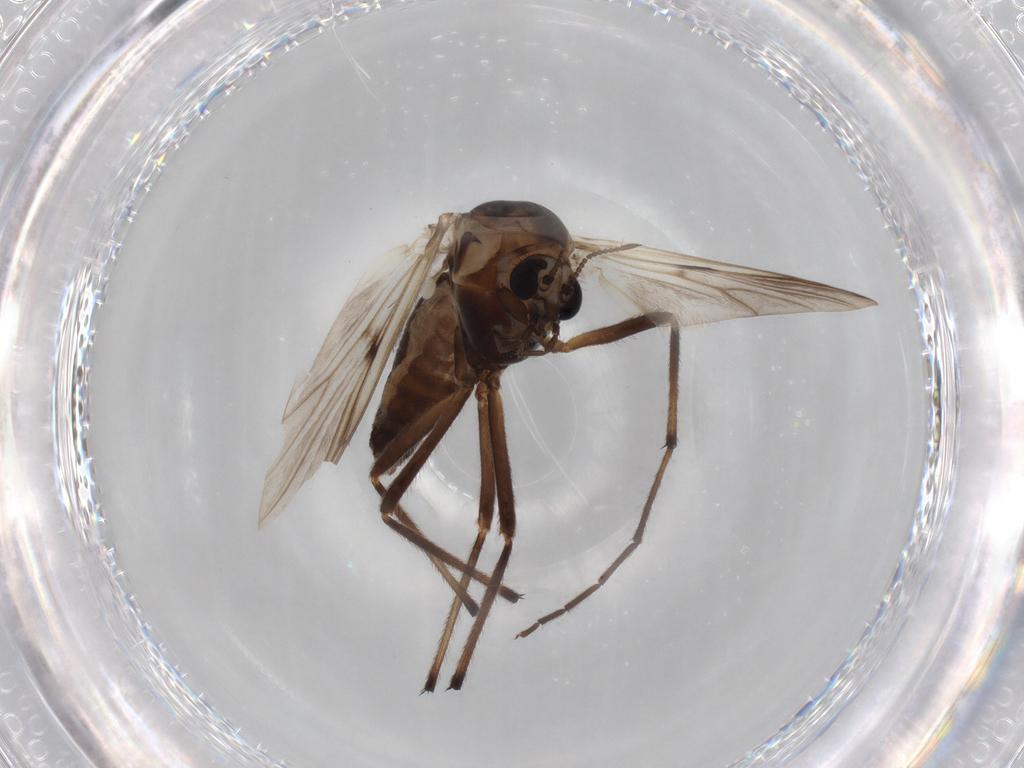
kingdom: Animalia
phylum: Arthropoda
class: Insecta
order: Diptera
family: Chironomidae
